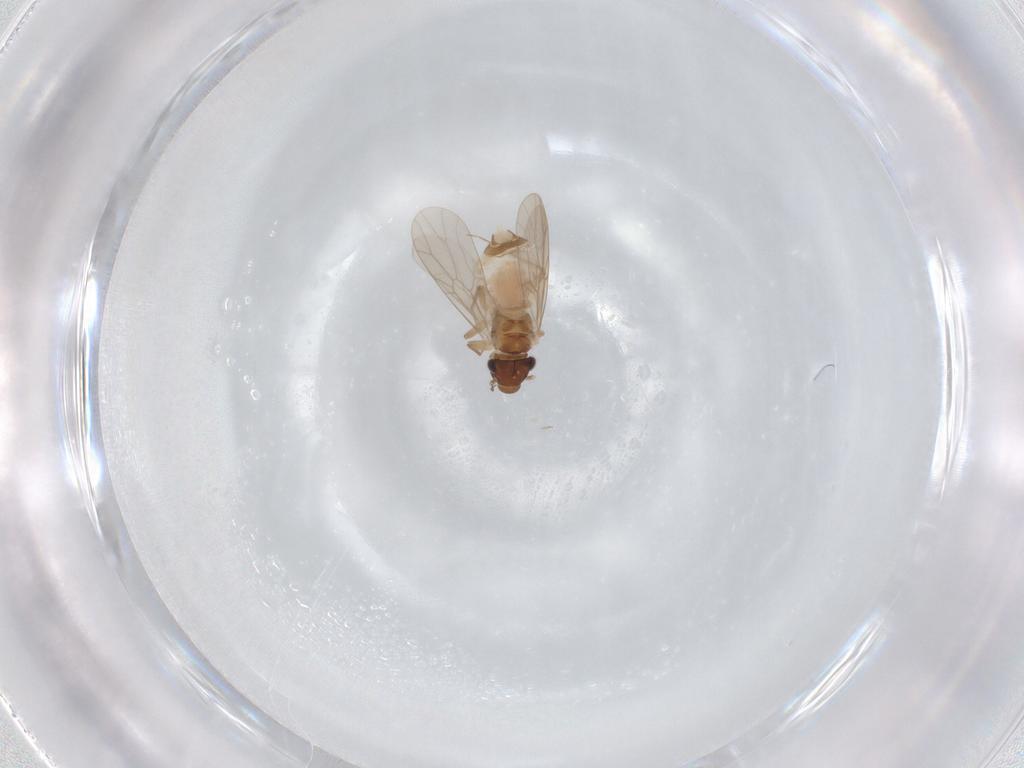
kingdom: Animalia
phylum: Arthropoda
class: Insecta
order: Psocodea
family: Lepidopsocidae
